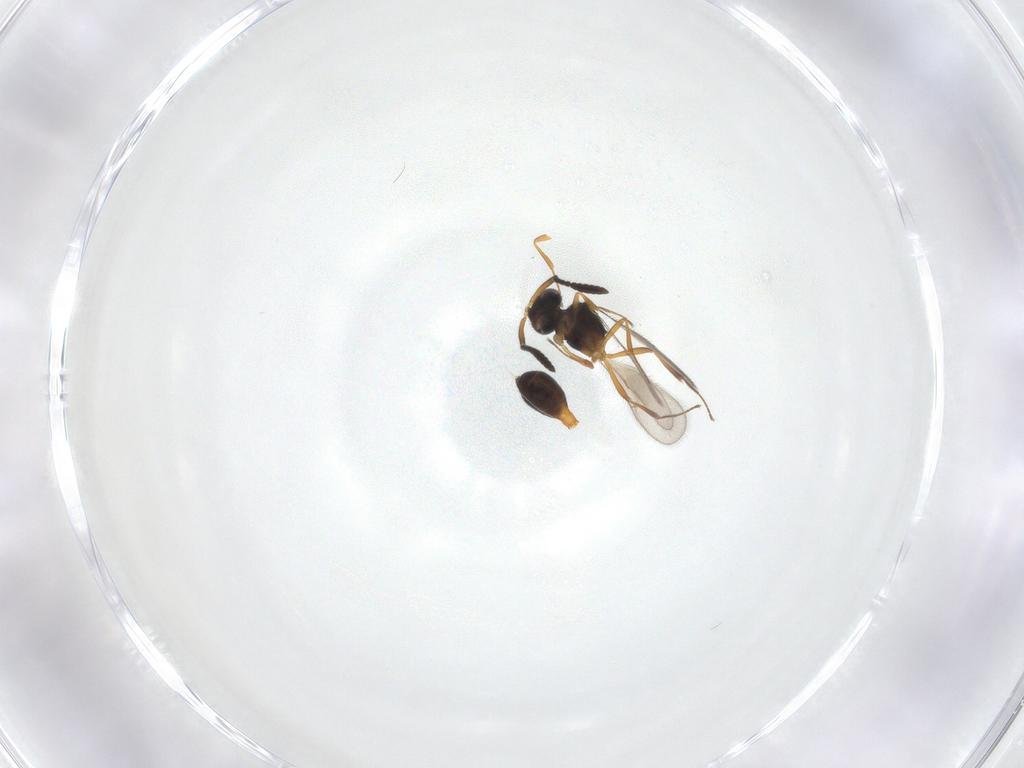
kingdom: Animalia
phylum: Arthropoda
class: Insecta
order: Hymenoptera
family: Scelionidae
